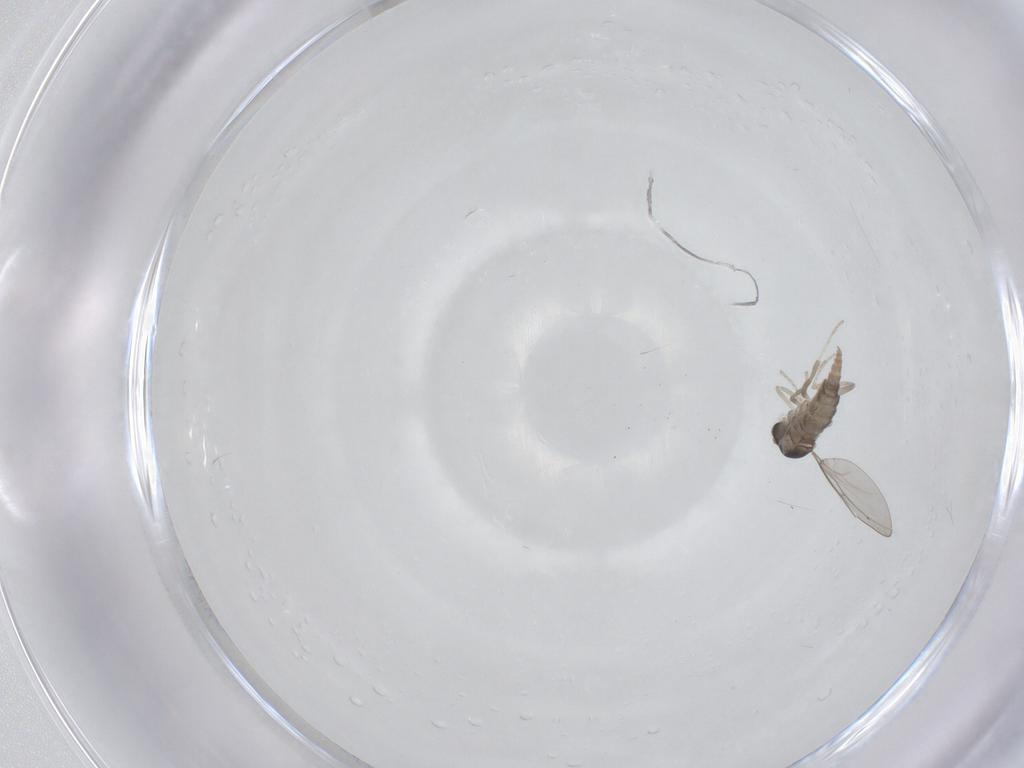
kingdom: Animalia
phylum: Arthropoda
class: Insecta
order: Diptera
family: Cecidomyiidae
